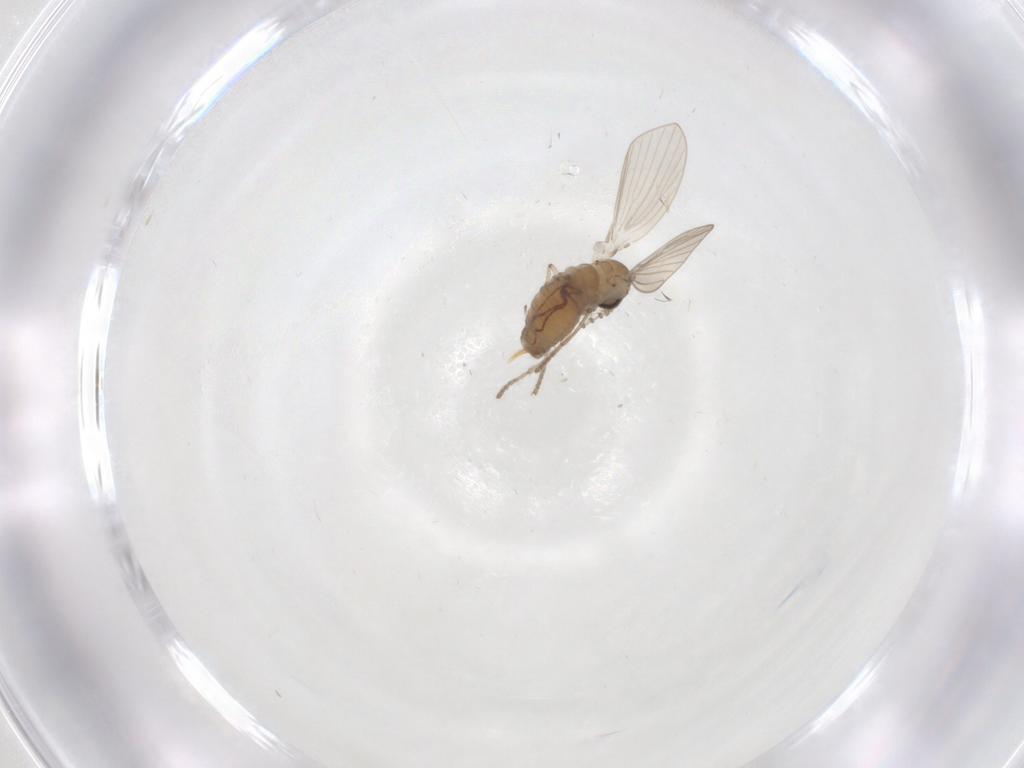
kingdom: Animalia
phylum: Arthropoda
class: Insecta
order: Diptera
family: Psychodidae
